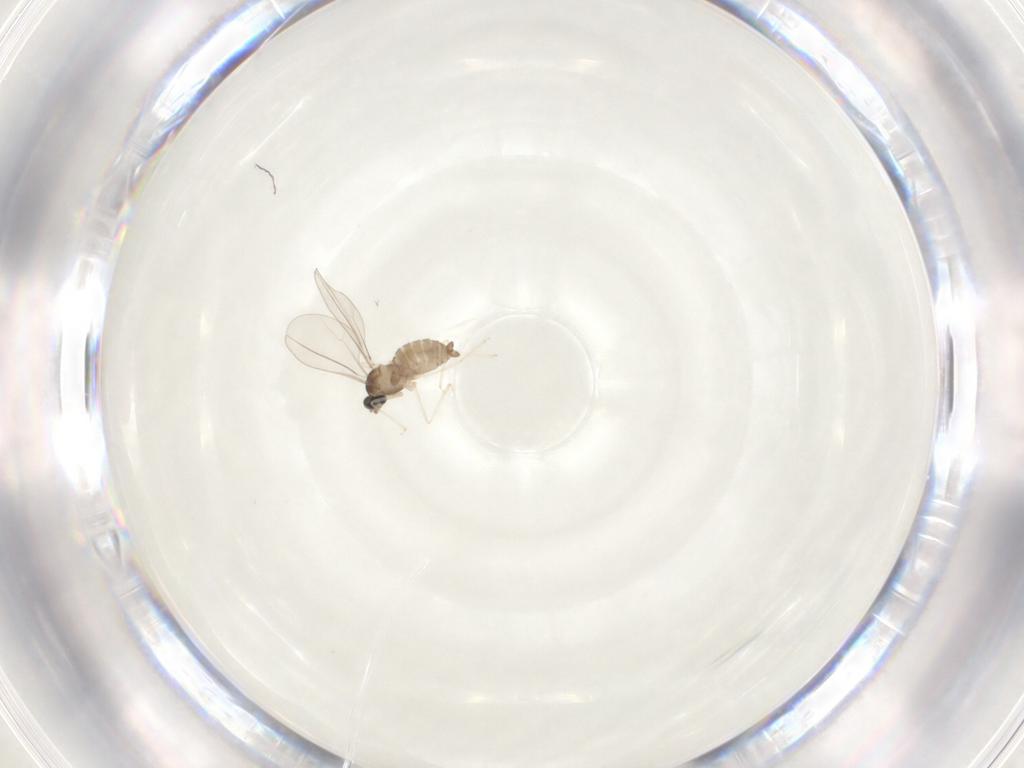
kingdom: Animalia
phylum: Arthropoda
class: Insecta
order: Diptera
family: Cecidomyiidae
